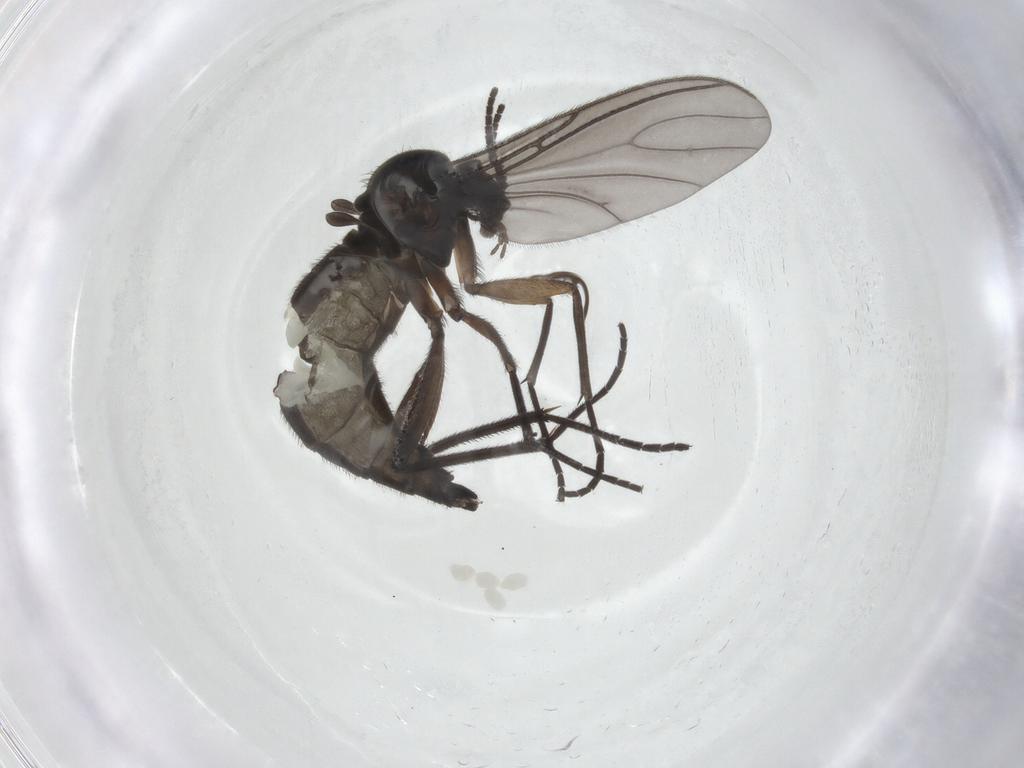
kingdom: Animalia
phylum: Arthropoda
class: Insecta
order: Diptera
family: Sciaridae
